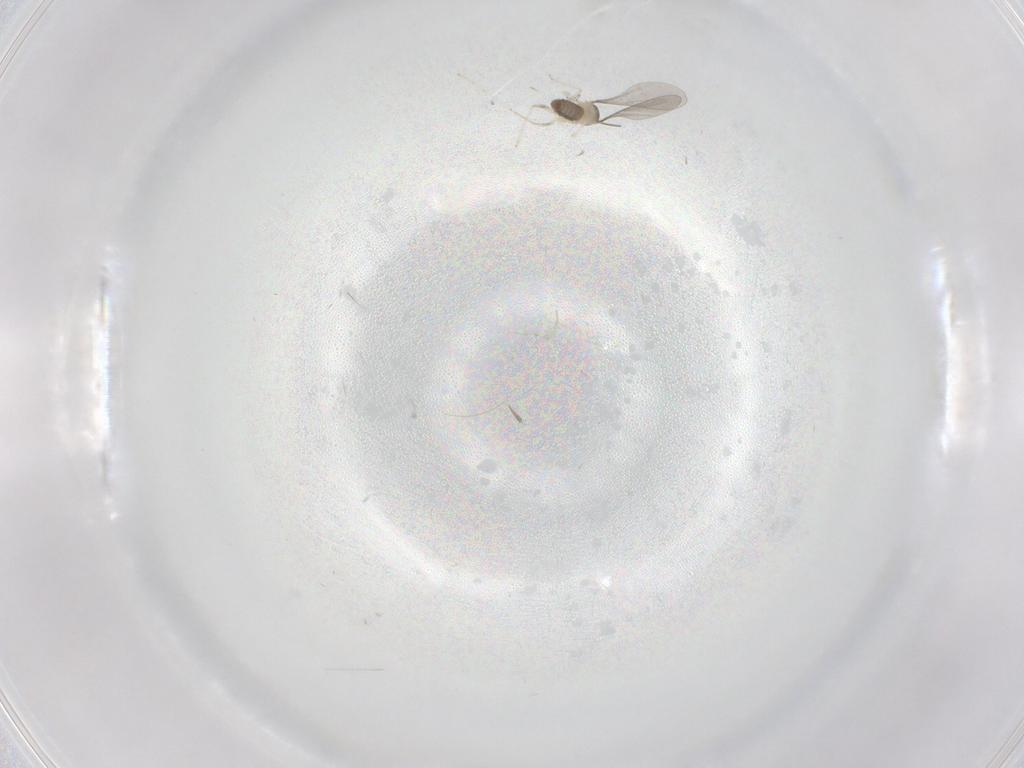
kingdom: Animalia
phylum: Arthropoda
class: Insecta
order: Diptera
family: Cecidomyiidae
